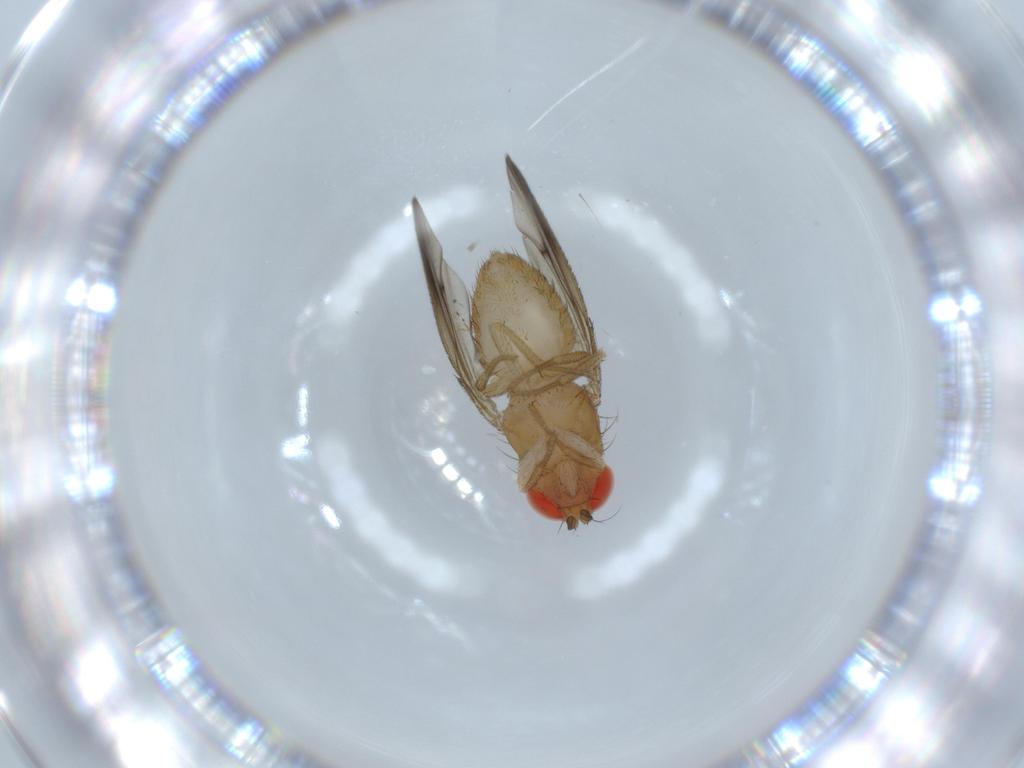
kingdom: Animalia
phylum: Arthropoda
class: Insecta
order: Diptera
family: Drosophilidae
